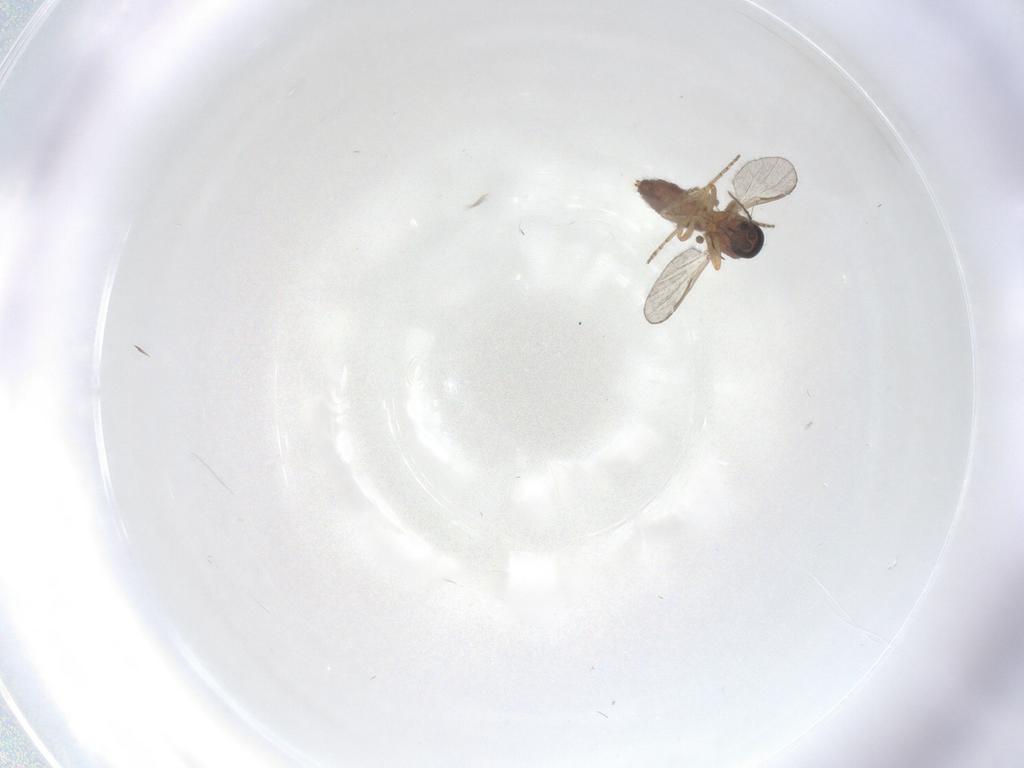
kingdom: Animalia
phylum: Arthropoda
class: Insecta
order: Diptera
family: Ceratopogonidae
